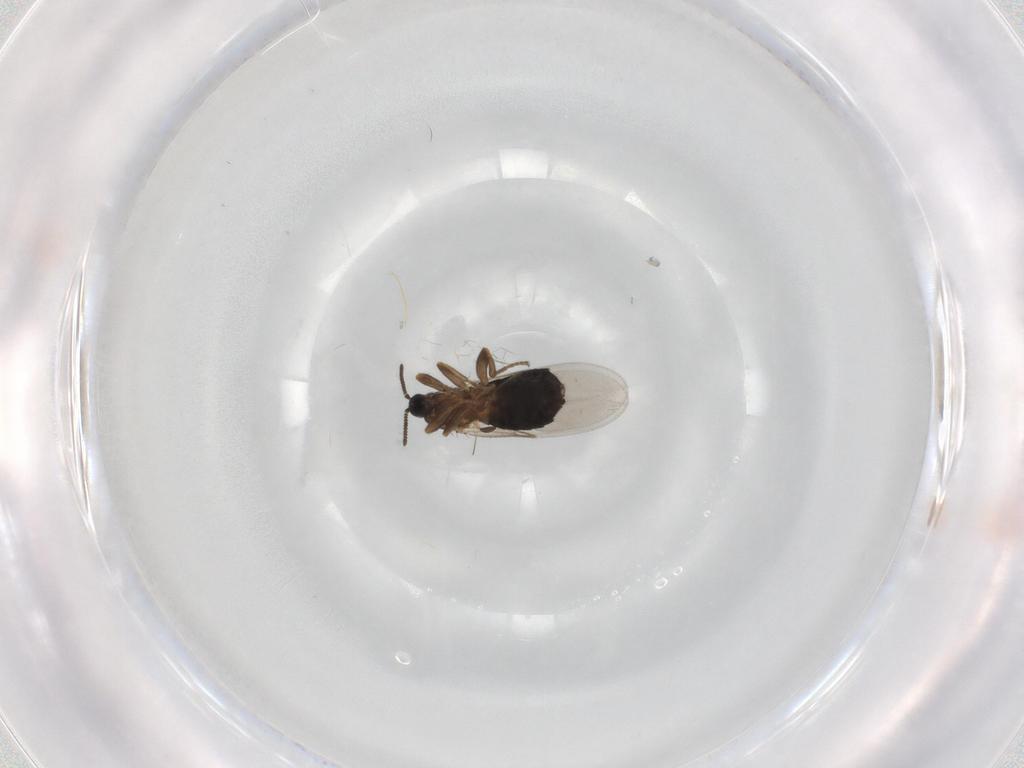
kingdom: Animalia
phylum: Arthropoda
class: Insecta
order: Diptera
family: Scatopsidae
